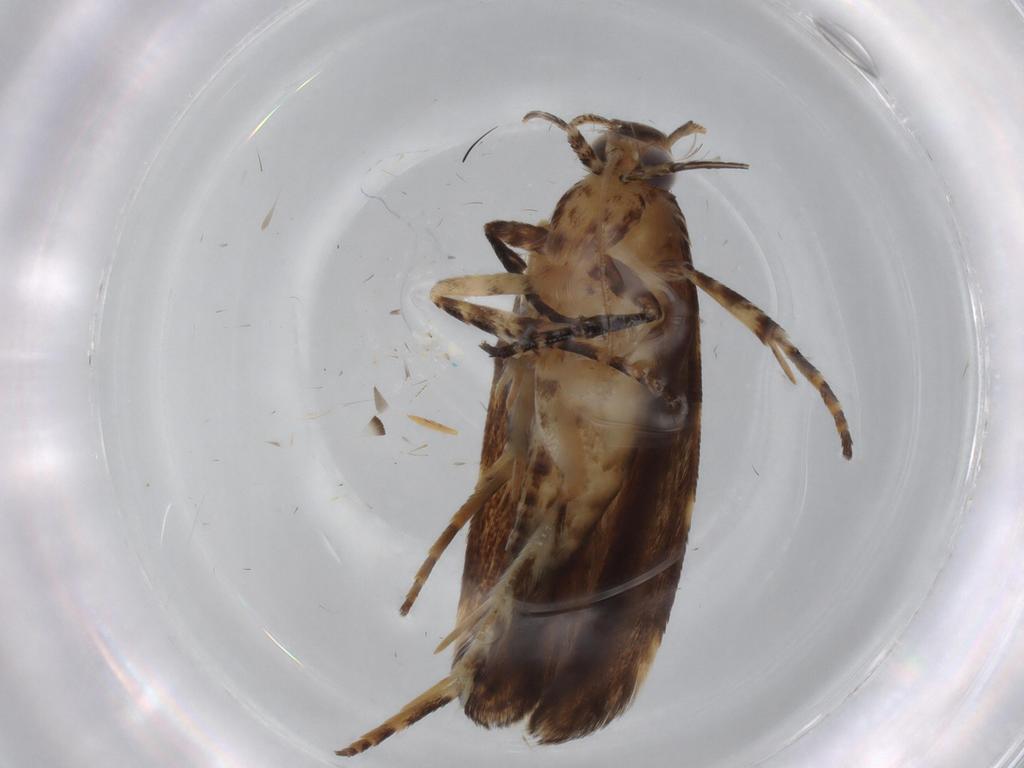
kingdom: Animalia
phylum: Arthropoda
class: Insecta
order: Lepidoptera
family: Gelechiidae
